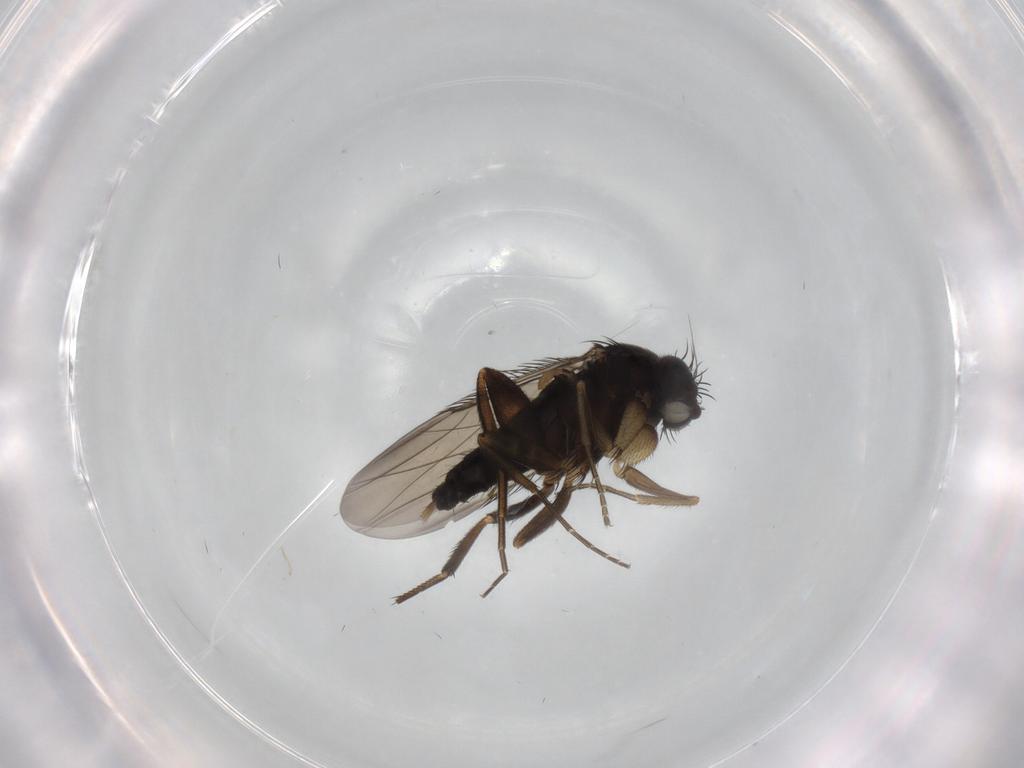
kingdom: Animalia
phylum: Arthropoda
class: Insecta
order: Diptera
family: Phoridae
